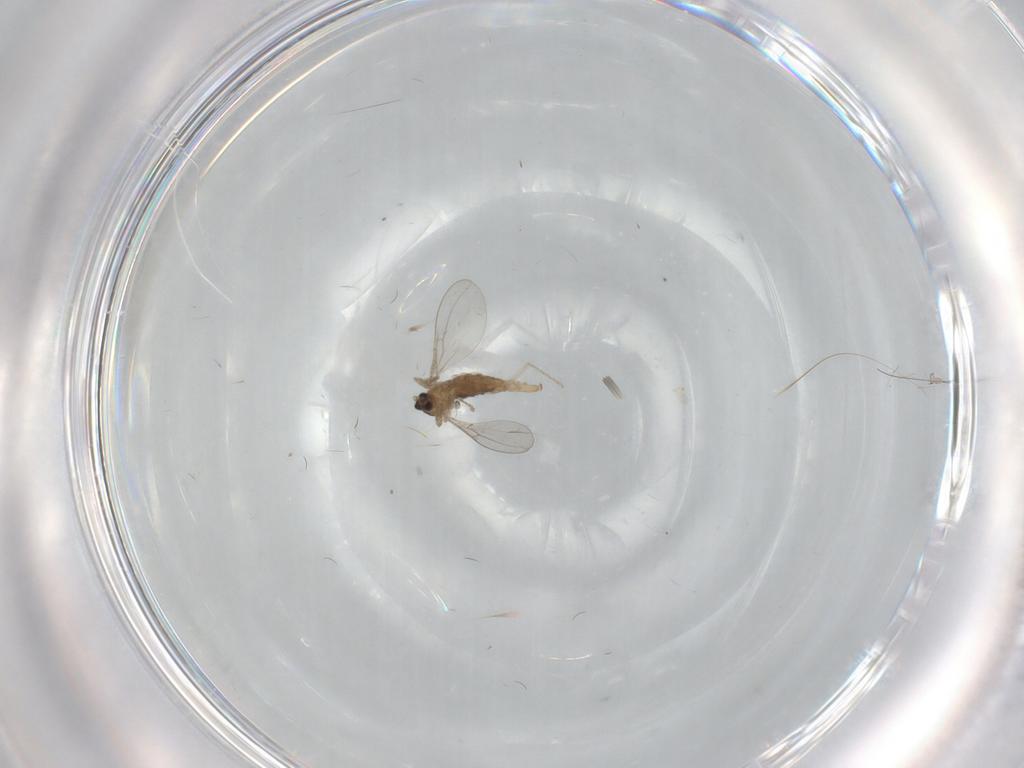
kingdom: Animalia
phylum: Arthropoda
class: Insecta
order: Diptera
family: Cecidomyiidae
